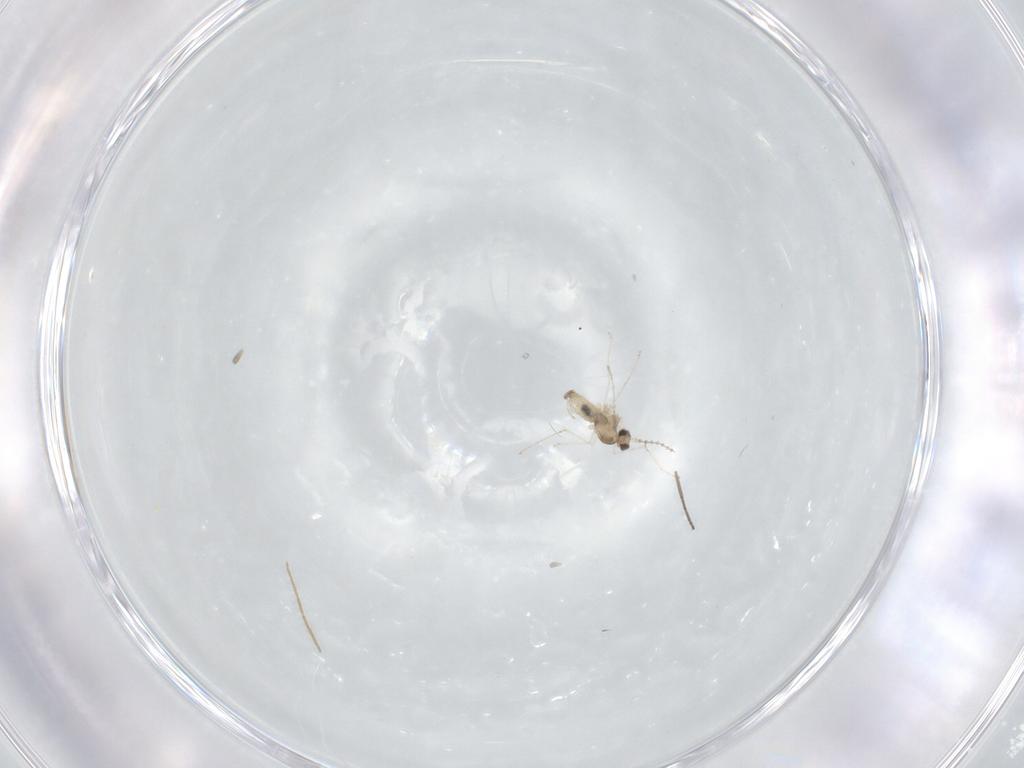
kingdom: Animalia
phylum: Arthropoda
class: Insecta
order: Diptera
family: Cecidomyiidae
